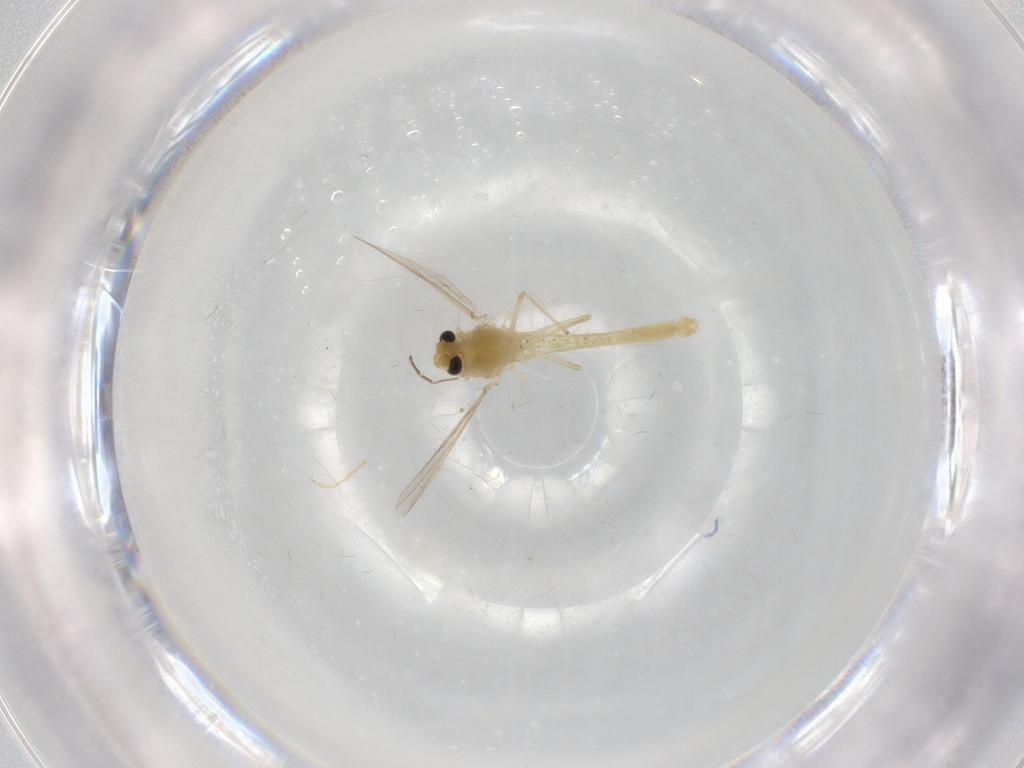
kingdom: Animalia
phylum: Arthropoda
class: Insecta
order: Diptera
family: Chironomidae
